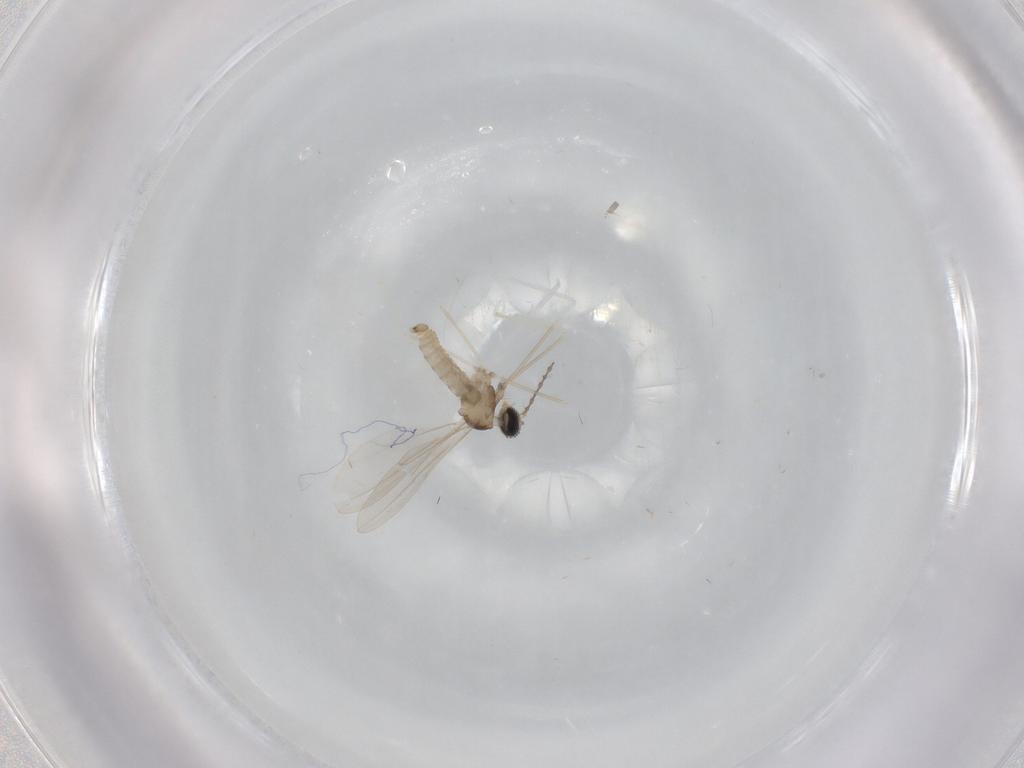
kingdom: Animalia
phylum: Arthropoda
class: Insecta
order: Diptera
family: Cecidomyiidae
